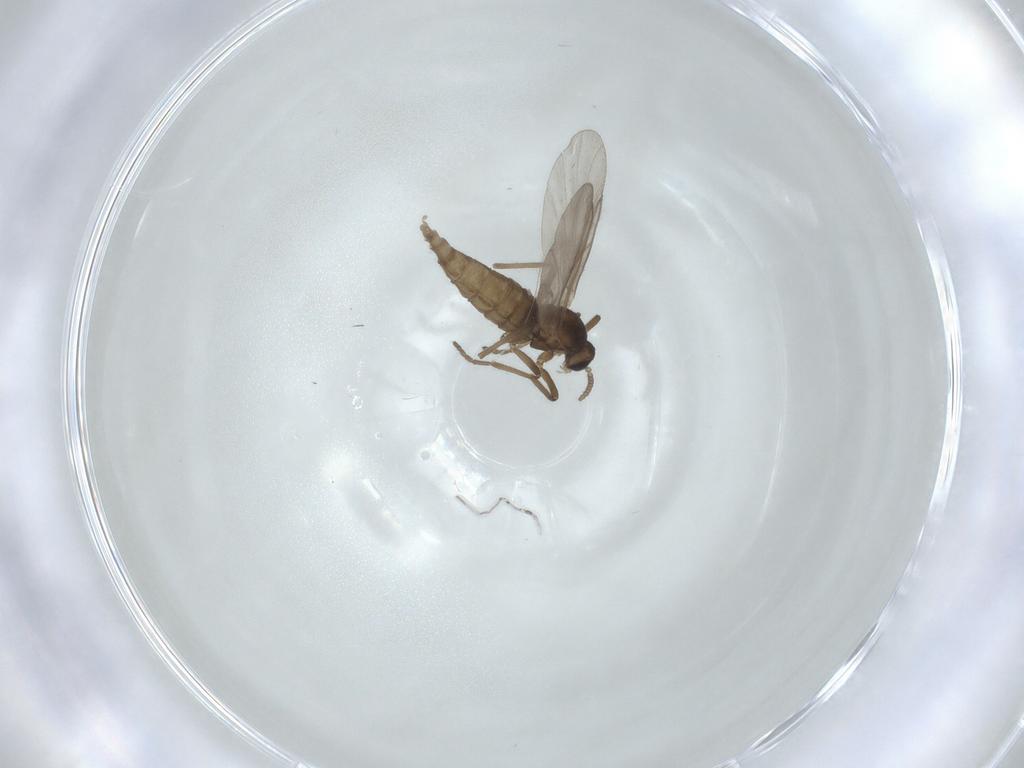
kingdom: Animalia
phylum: Arthropoda
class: Insecta
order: Diptera
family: Cecidomyiidae
